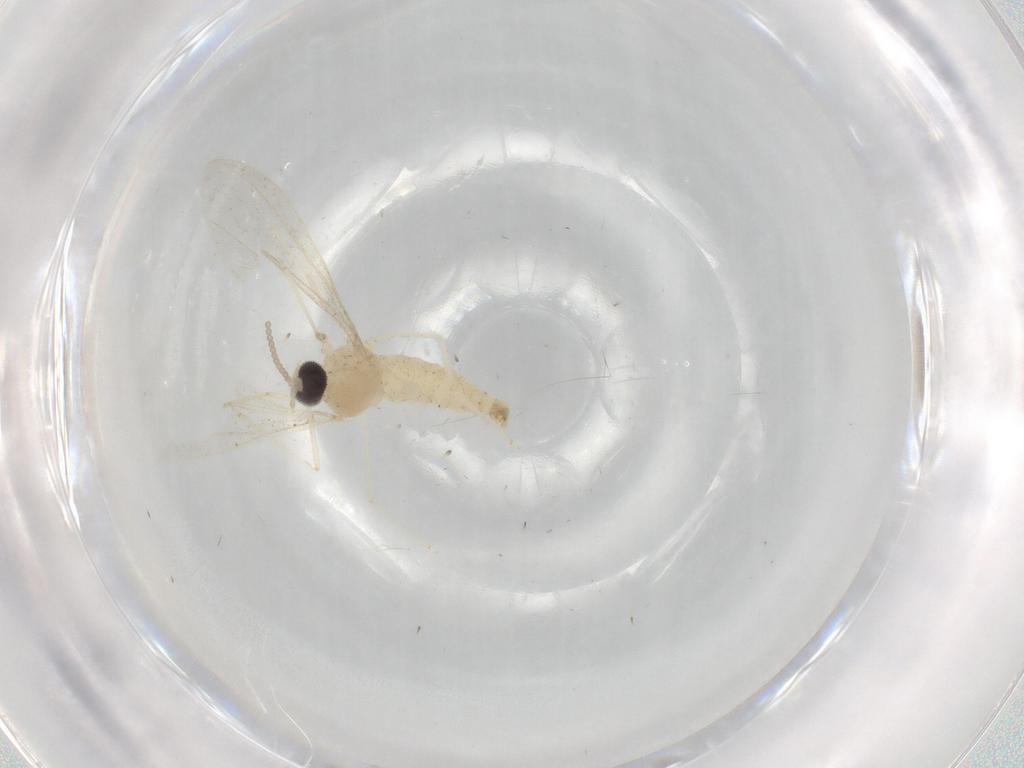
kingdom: Animalia
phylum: Arthropoda
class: Insecta
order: Diptera
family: Cecidomyiidae
